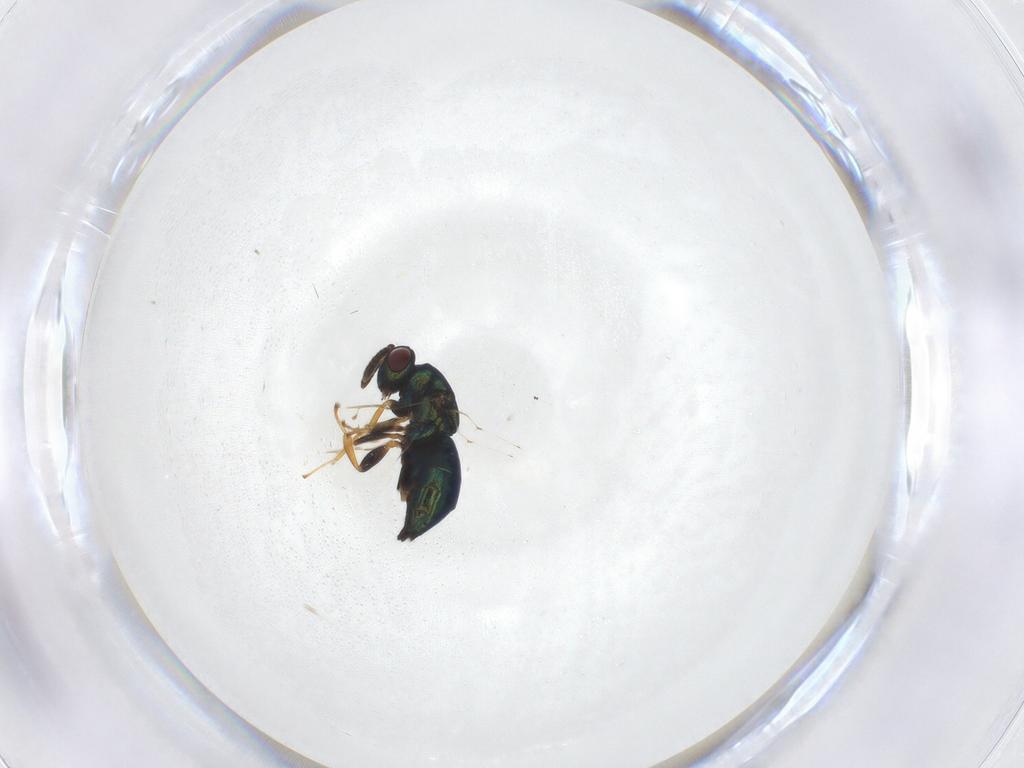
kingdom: Animalia
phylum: Arthropoda
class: Insecta
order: Hymenoptera
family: Pteromalidae
